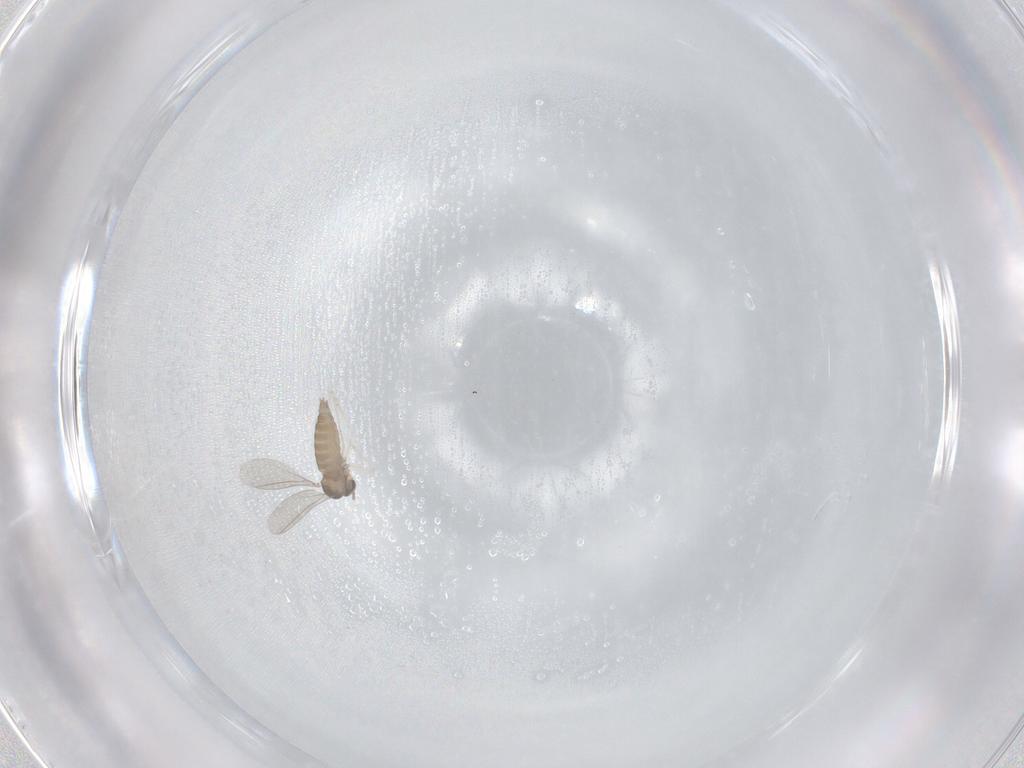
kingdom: Animalia
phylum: Arthropoda
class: Insecta
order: Diptera
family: Cecidomyiidae
